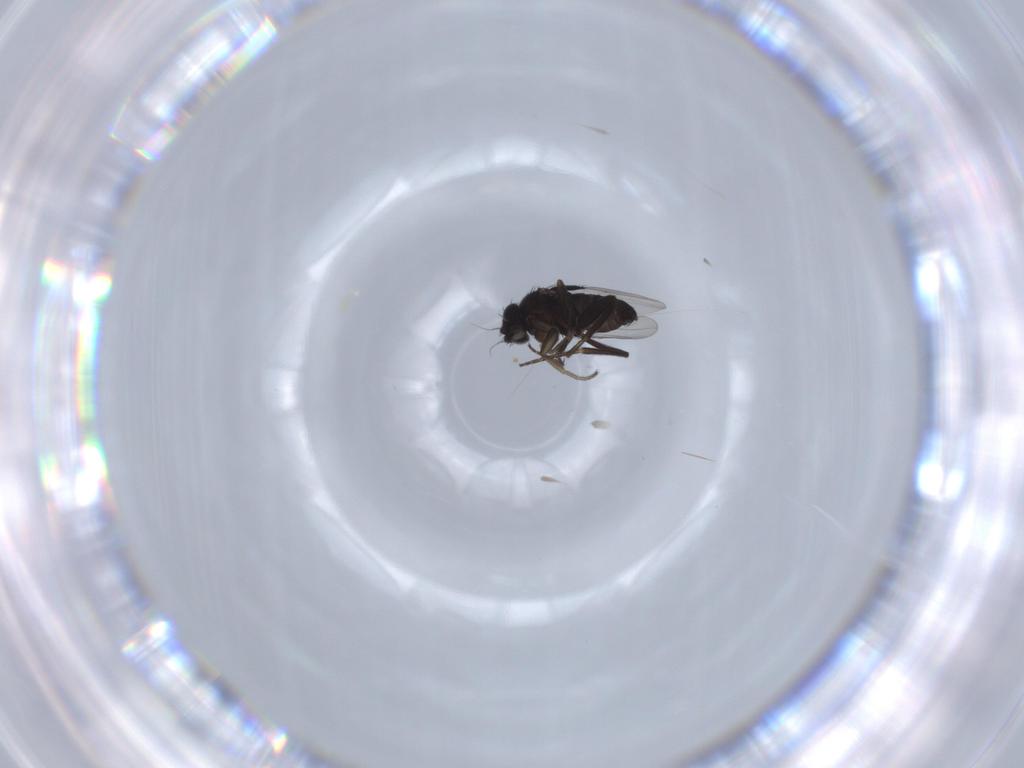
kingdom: Animalia
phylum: Arthropoda
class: Insecta
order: Diptera
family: Phoridae
